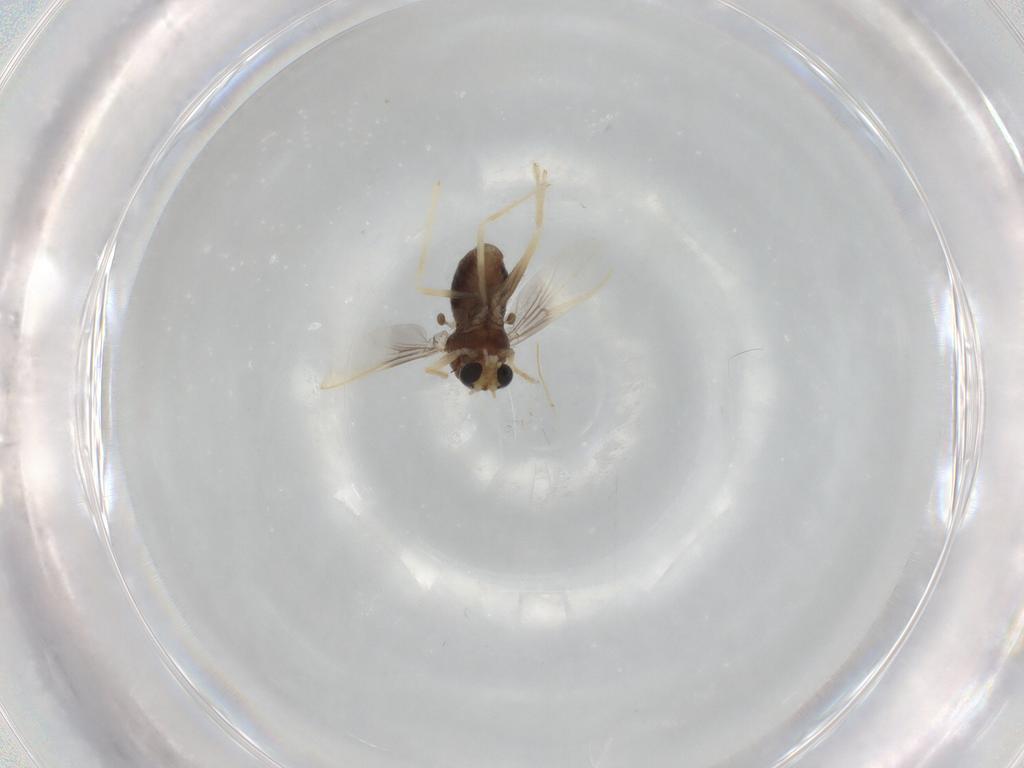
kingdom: Animalia
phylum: Arthropoda
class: Insecta
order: Diptera
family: Chironomidae
